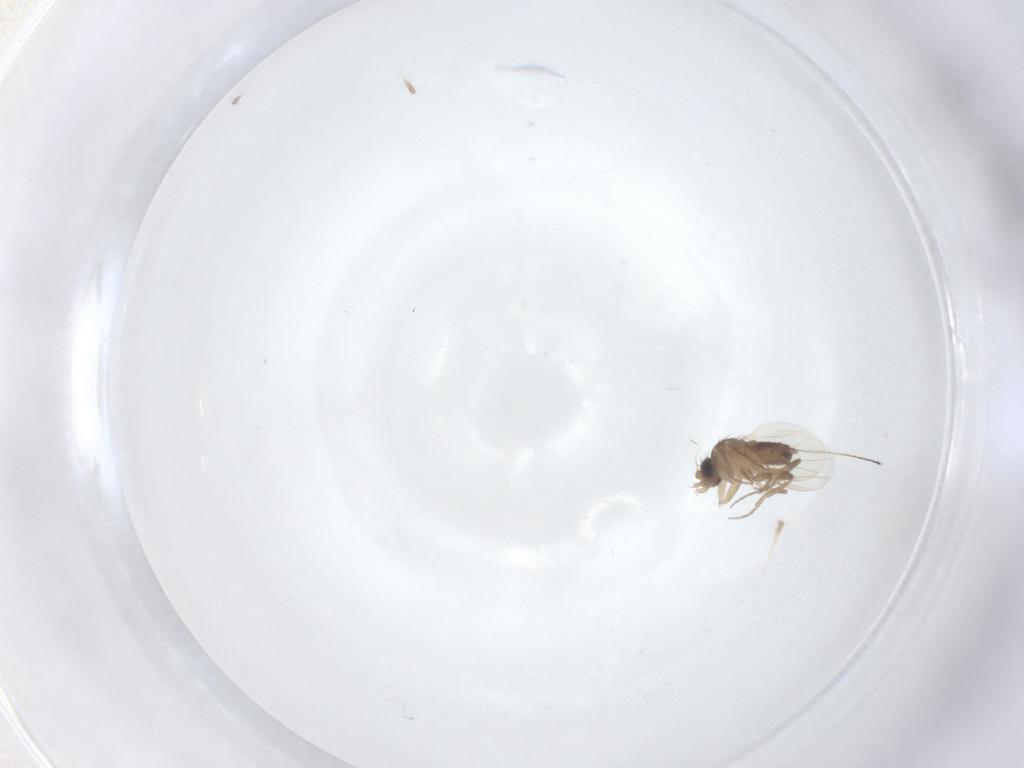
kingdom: Animalia
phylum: Arthropoda
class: Insecta
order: Diptera
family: Phoridae
